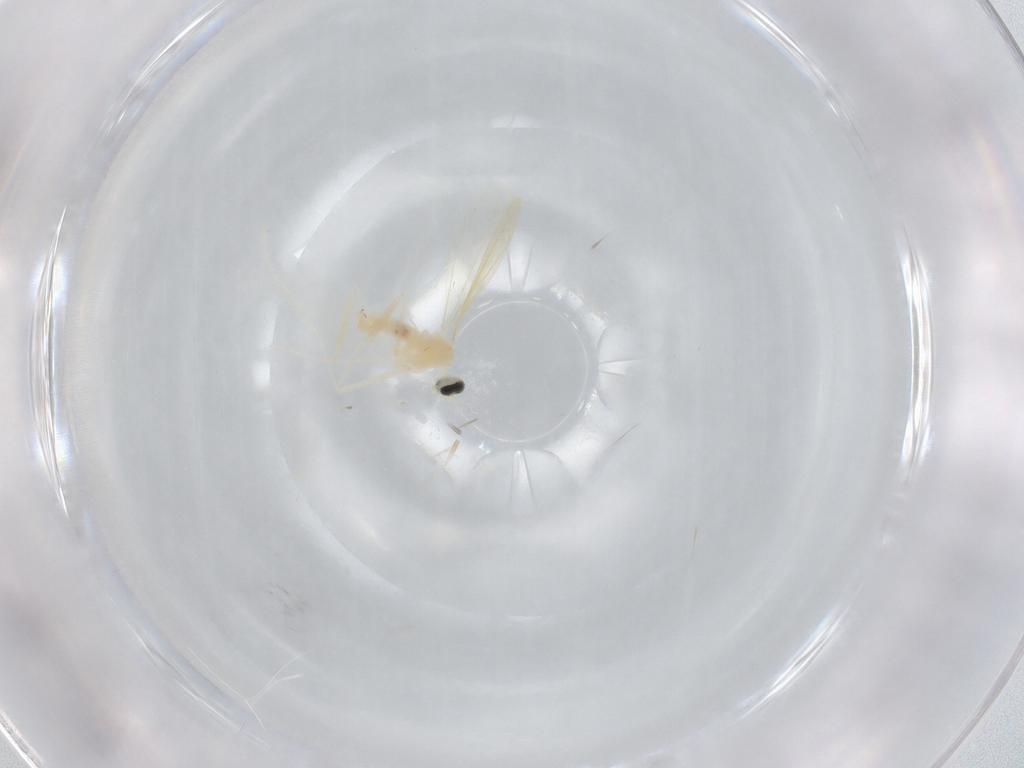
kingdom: Animalia
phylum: Arthropoda
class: Insecta
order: Diptera
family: Cecidomyiidae
